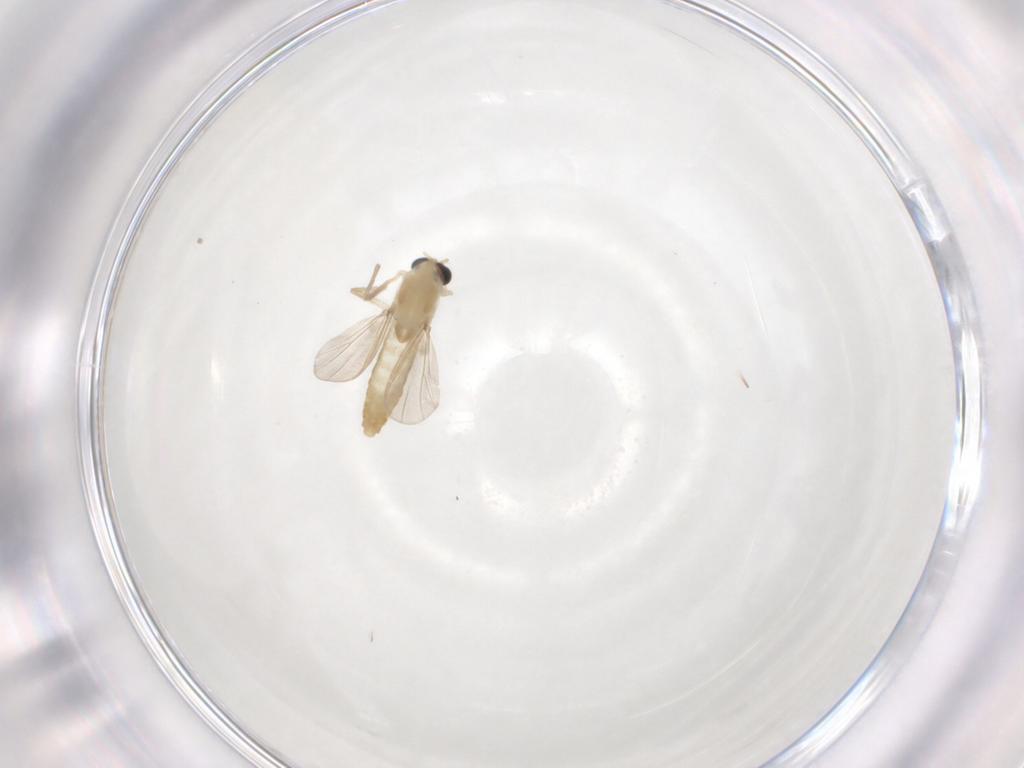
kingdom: Animalia
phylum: Arthropoda
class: Insecta
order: Diptera
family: Chironomidae
